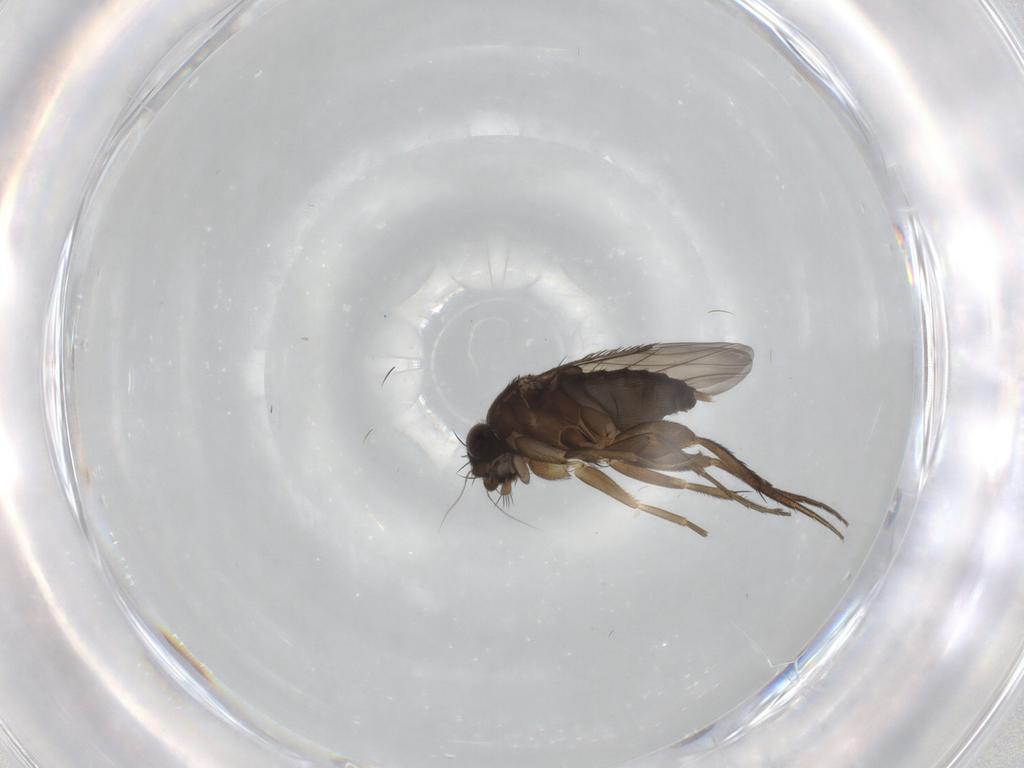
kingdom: Animalia
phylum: Arthropoda
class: Insecta
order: Diptera
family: Phoridae
